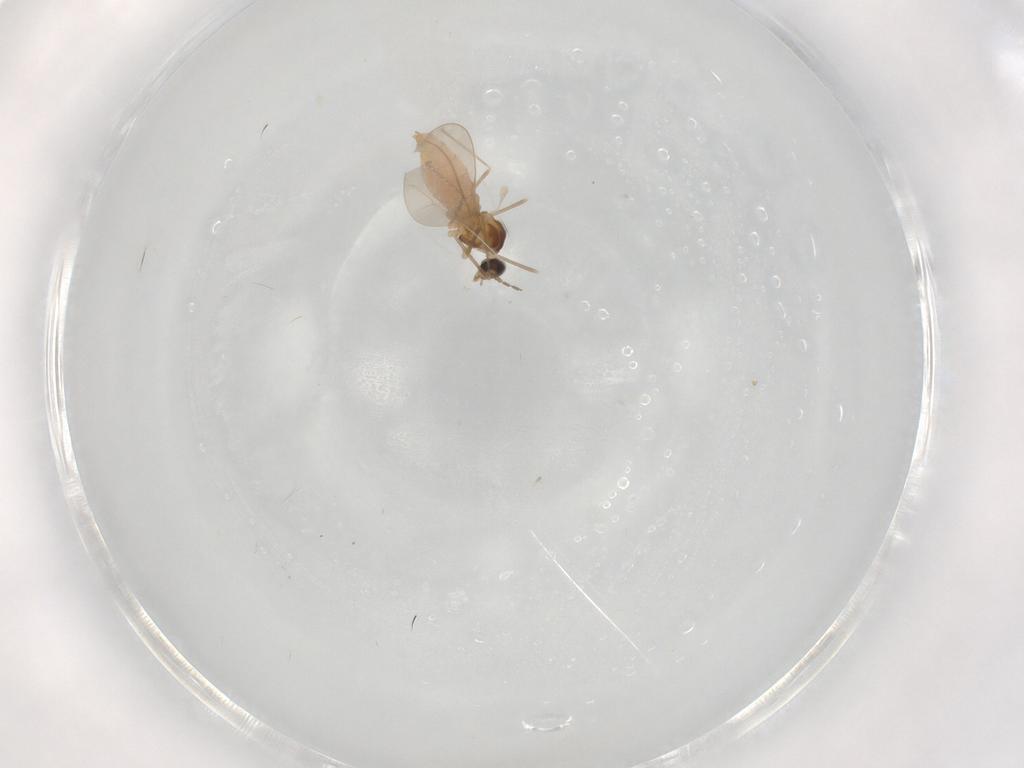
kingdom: Animalia
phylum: Arthropoda
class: Insecta
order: Diptera
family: Cecidomyiidae
